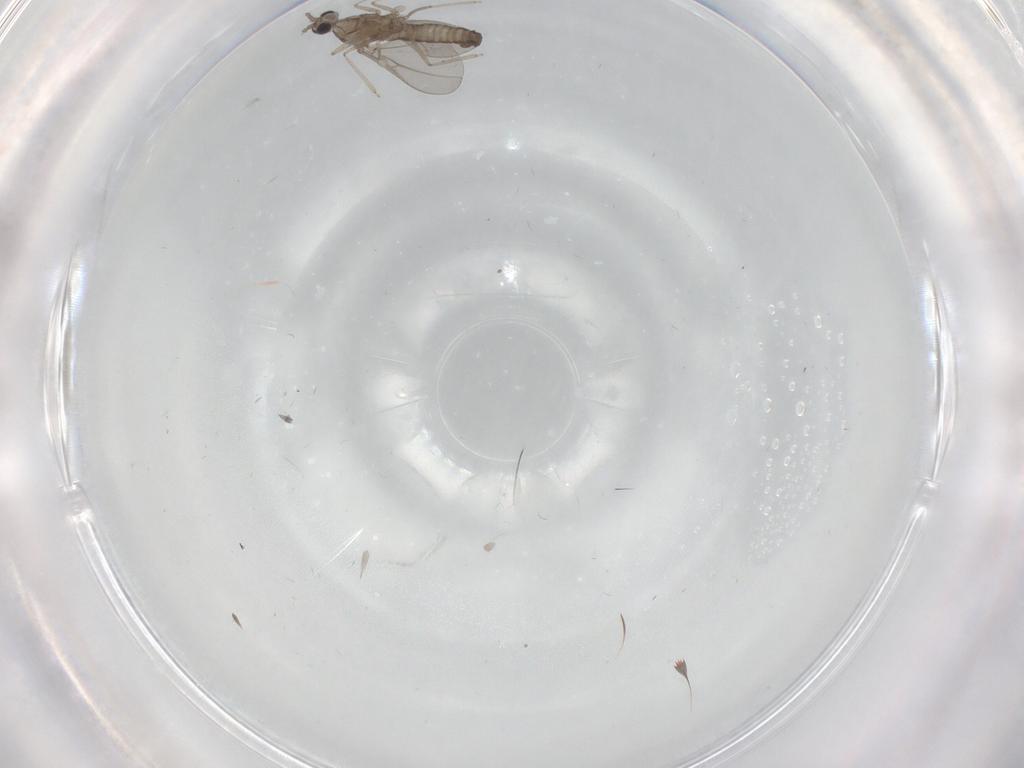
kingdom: Animalia
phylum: Arthropoda
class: Insecta
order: Diptera
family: Cecidomyiidae
